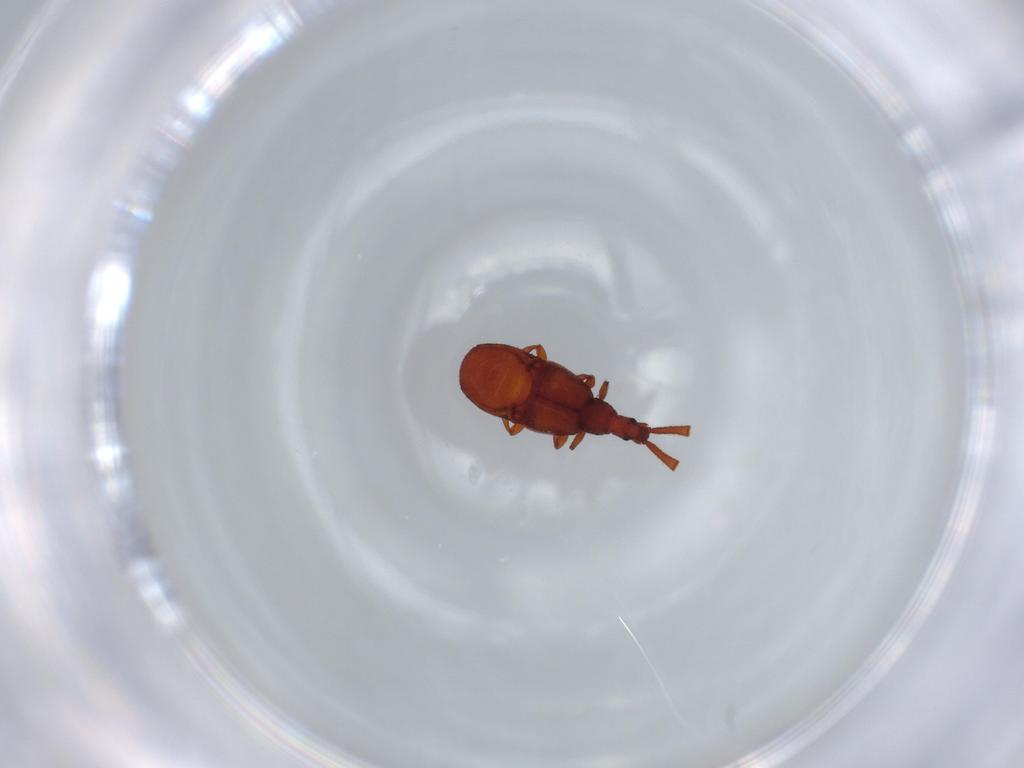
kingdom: Animalia
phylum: Arthropoda
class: Insecta
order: Coleoptera
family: Staphylinidae
